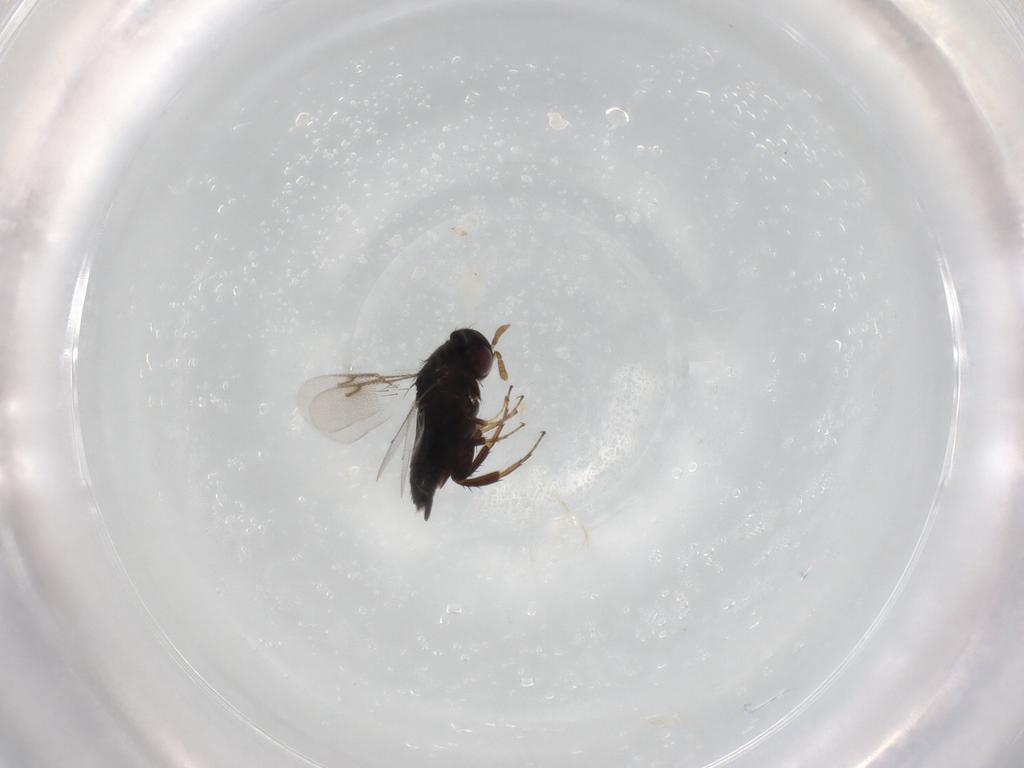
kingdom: Animalia
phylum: Arthropoda
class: Insecta
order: Hymenoptera
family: Pirenidae
